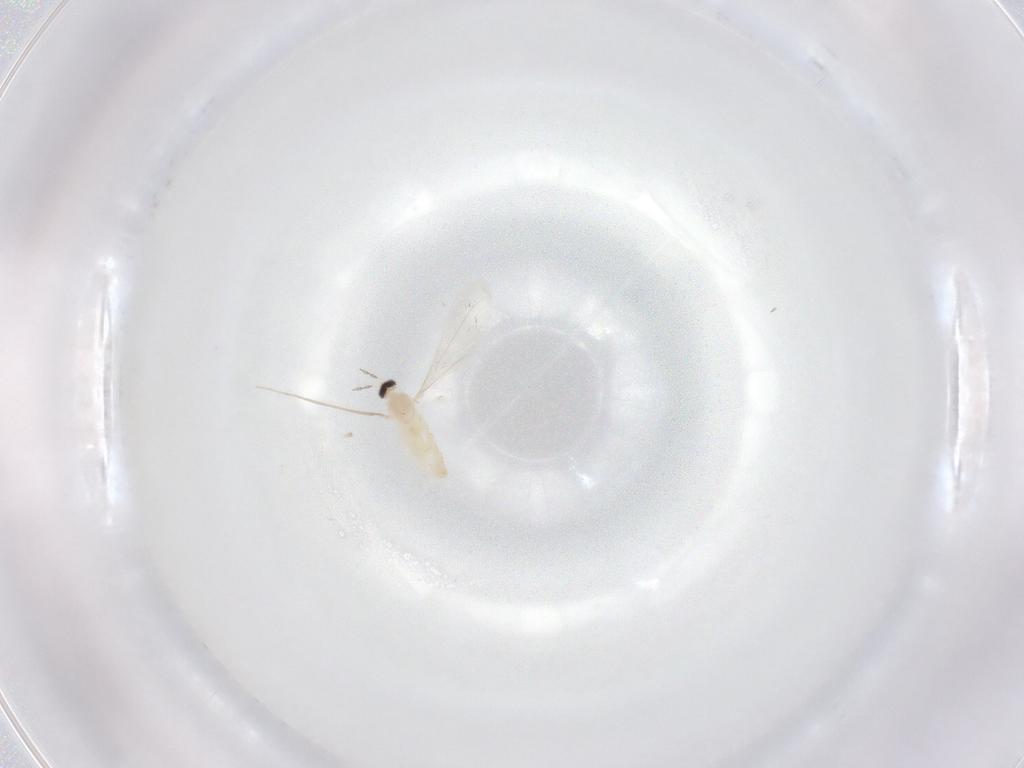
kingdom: Animalia
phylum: Arthropoda
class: Insecta
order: Diptera
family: Cecidomyiidae
